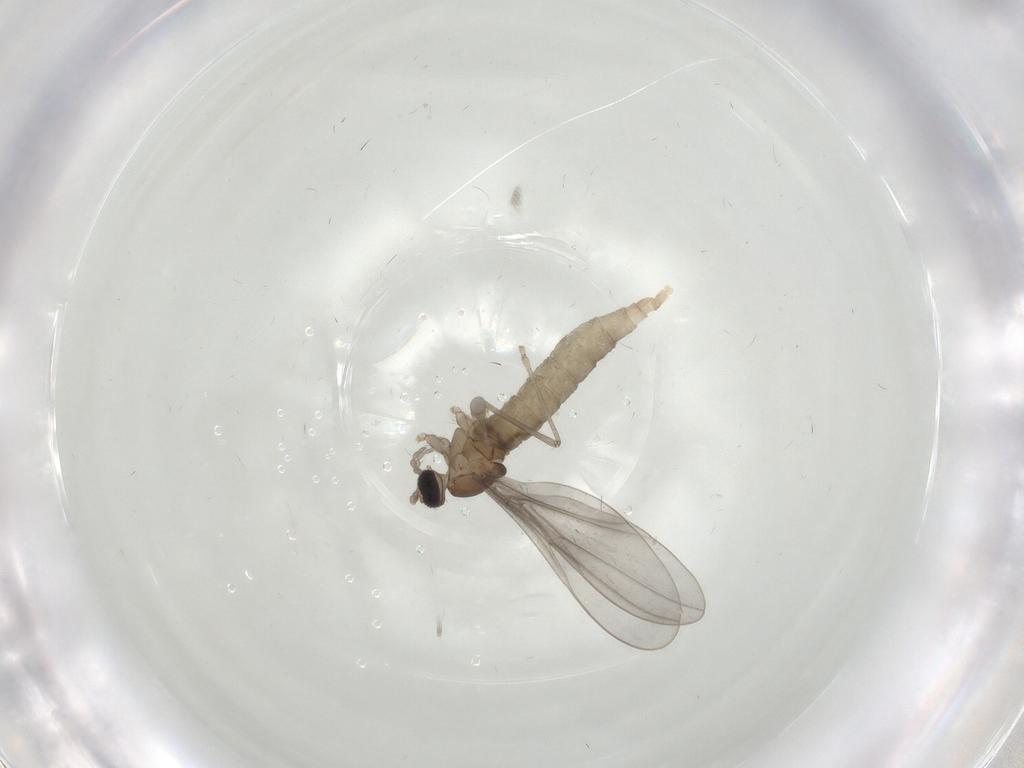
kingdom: Animalia
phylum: Arthropoda
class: Insecta
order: Diptera
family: Cecidomyiidae
